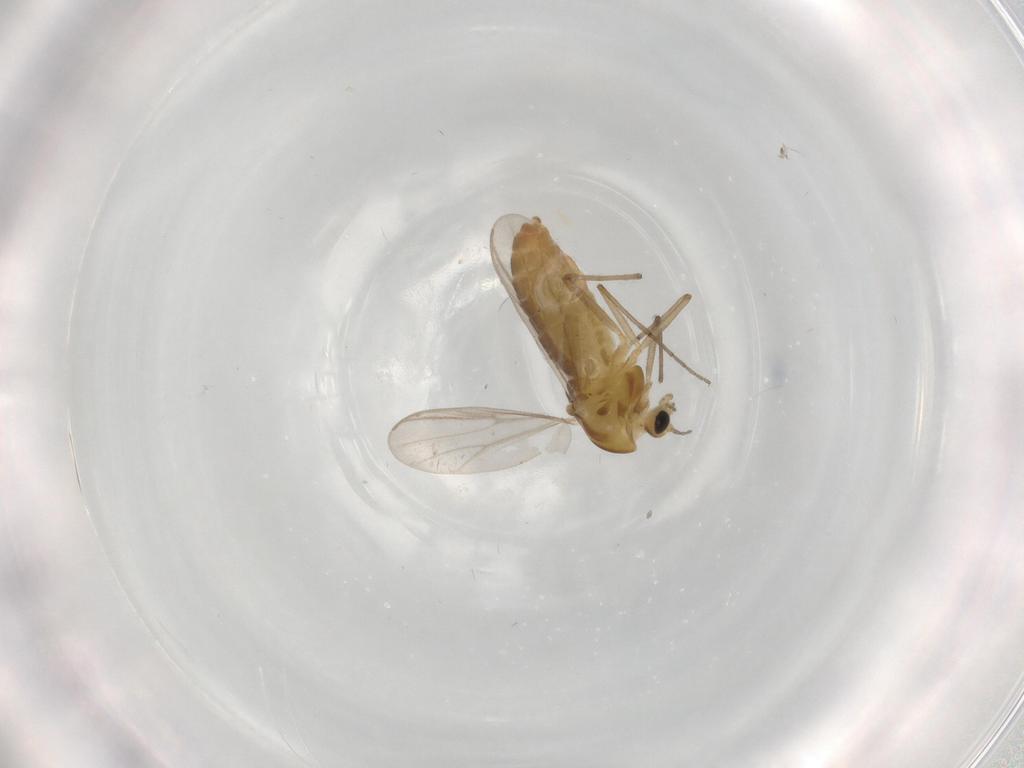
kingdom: Animalia
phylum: Arthropoda
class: Insecta
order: Diptera
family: Chironomidae
